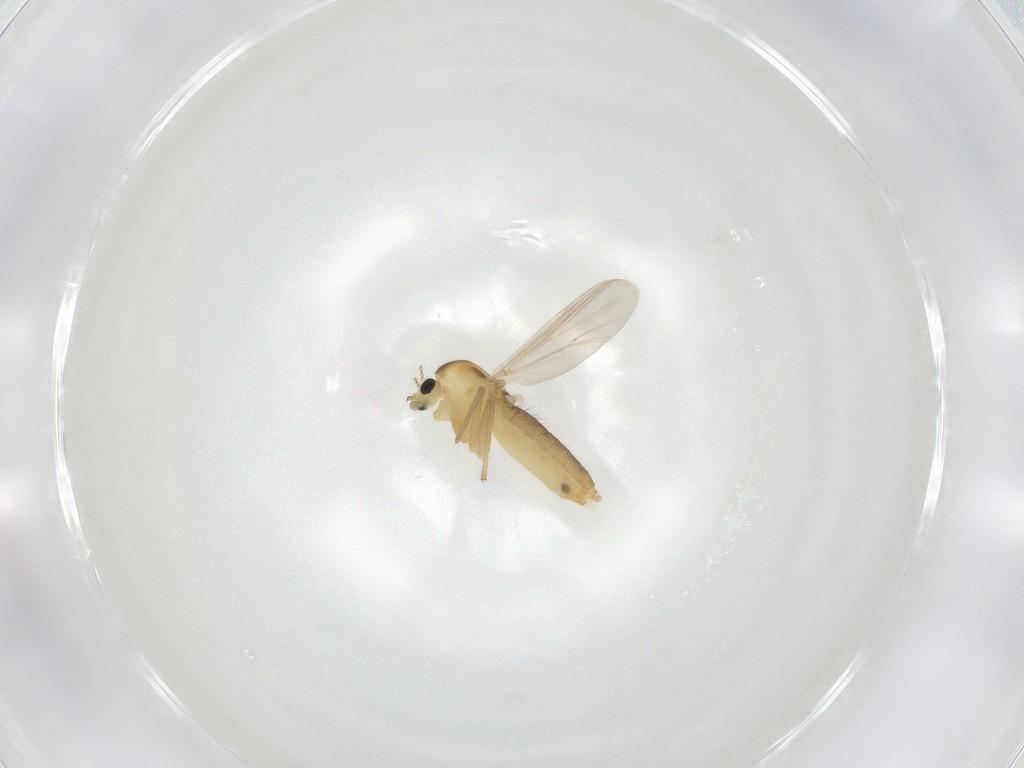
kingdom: Animalia
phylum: Arthropoda
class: Insecta
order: Diptera
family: Chironomidae
